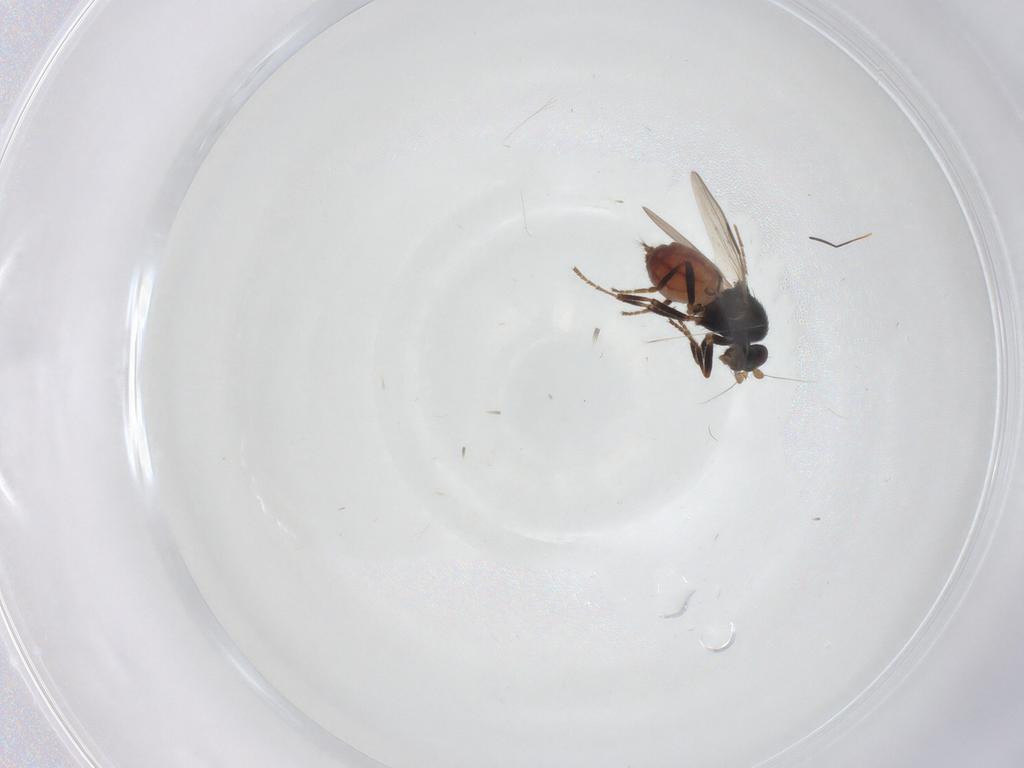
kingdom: Animalia
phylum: Arthropoda
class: Insecta
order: Diptera
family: Sphaeroceridae
